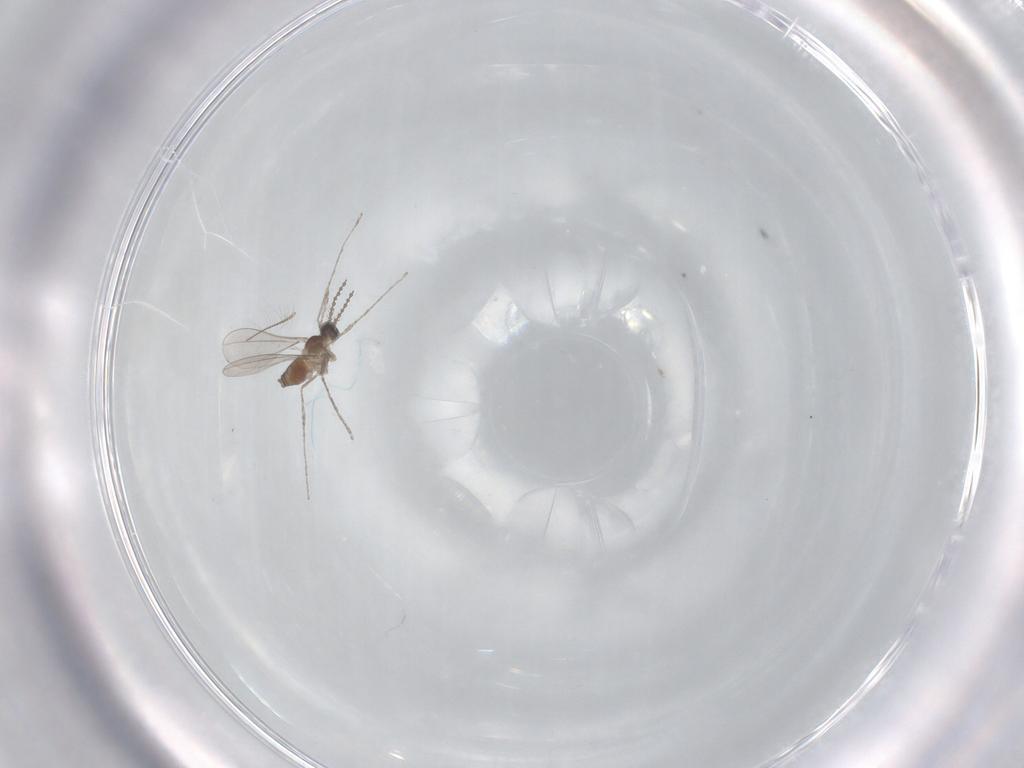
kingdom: Animalia
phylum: Arthropoda
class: Insecta
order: Diptera
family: Cecidomyiidae
